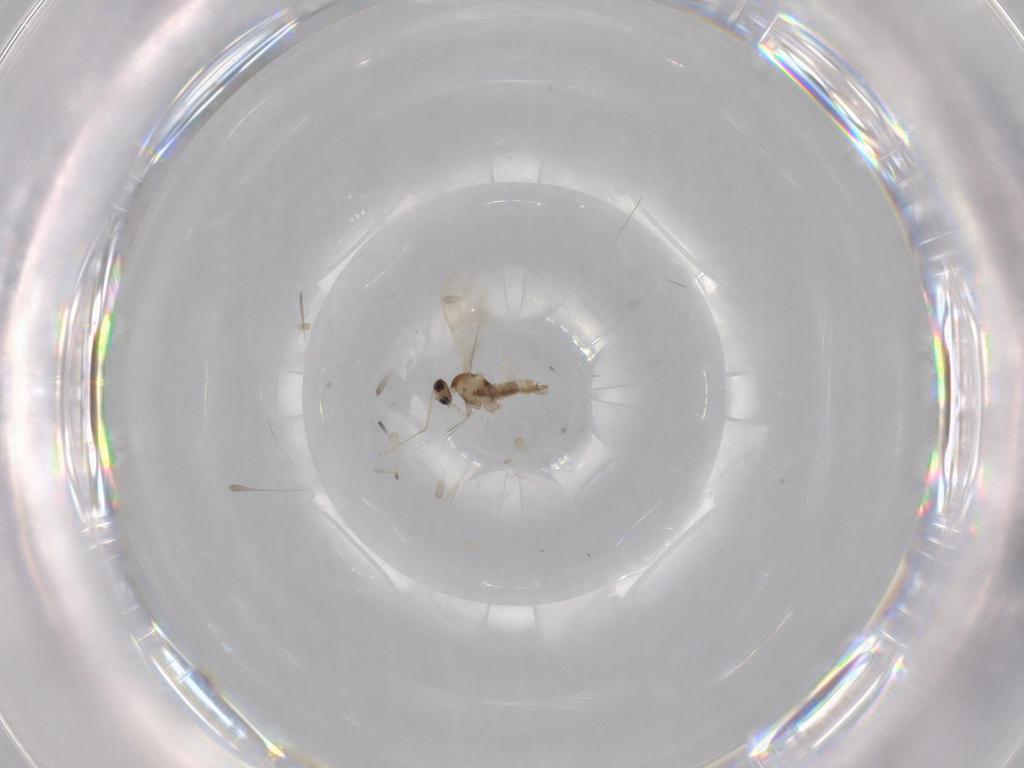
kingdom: Animalia
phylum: Arthropoda
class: Insecta
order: Diptera
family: Cecidomyiidae
